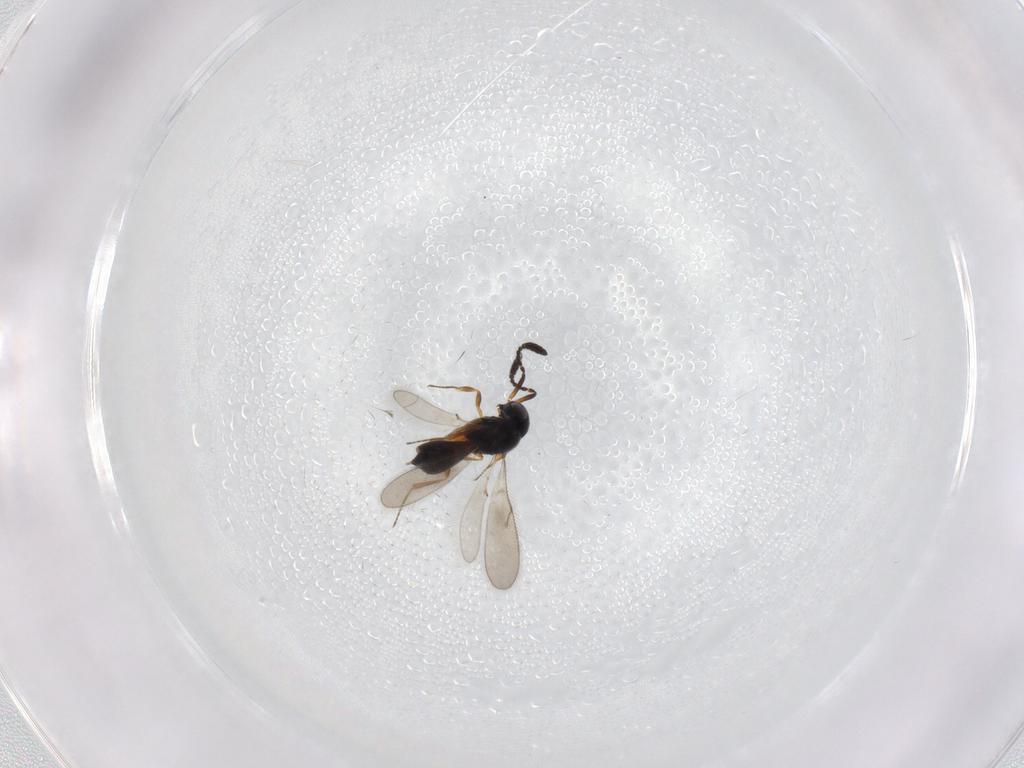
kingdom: Animalia
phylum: Arthropoda
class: Insecta
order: Hymenoptera
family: Scelionidae
